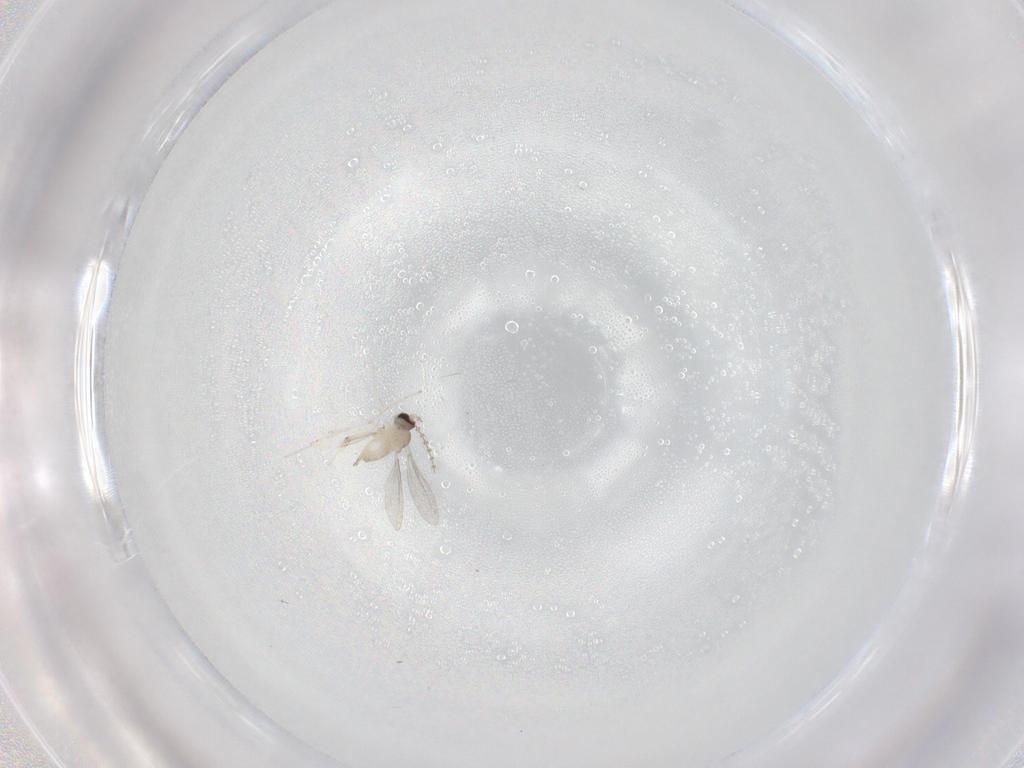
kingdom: Animalia
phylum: Arthropoda
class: Insecta
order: Diptera
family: Cecidomyiidae
